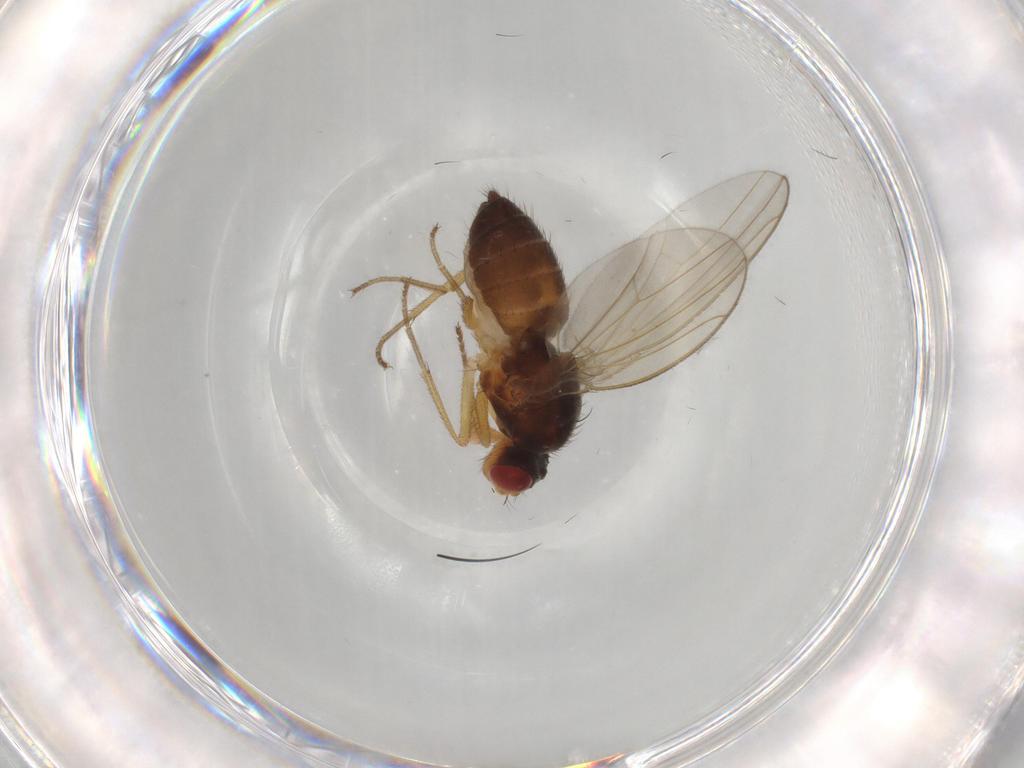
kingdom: Animalia
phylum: Arthropoda
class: Insecta
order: Diptera
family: Drosophilidae
